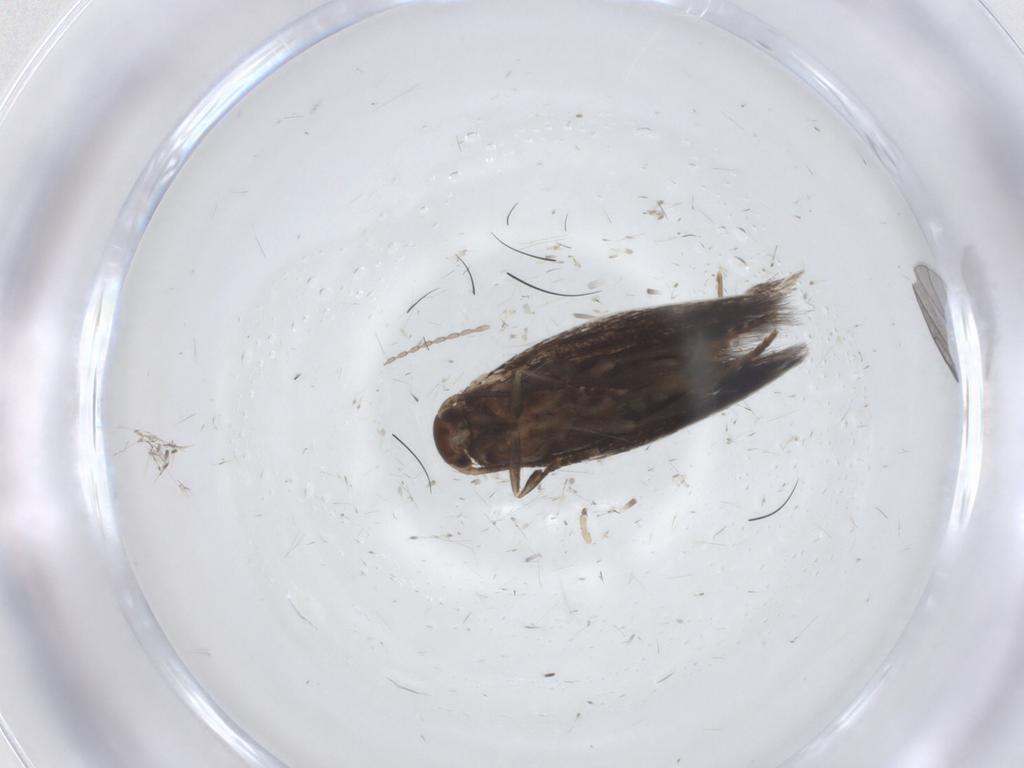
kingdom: Animalia
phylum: Arthropoda
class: Insecta
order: Lepidoptera
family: Elachistidae
